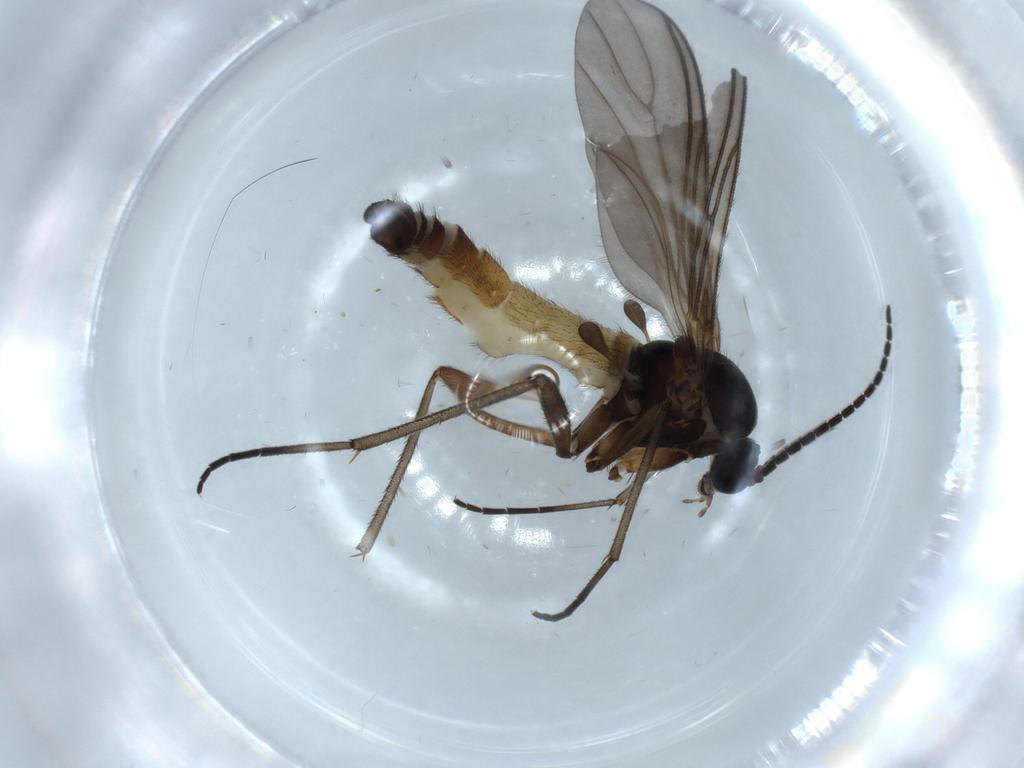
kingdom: Animalia
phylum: Arthropoda
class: Insecta
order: Diptera
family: Sciaridae
